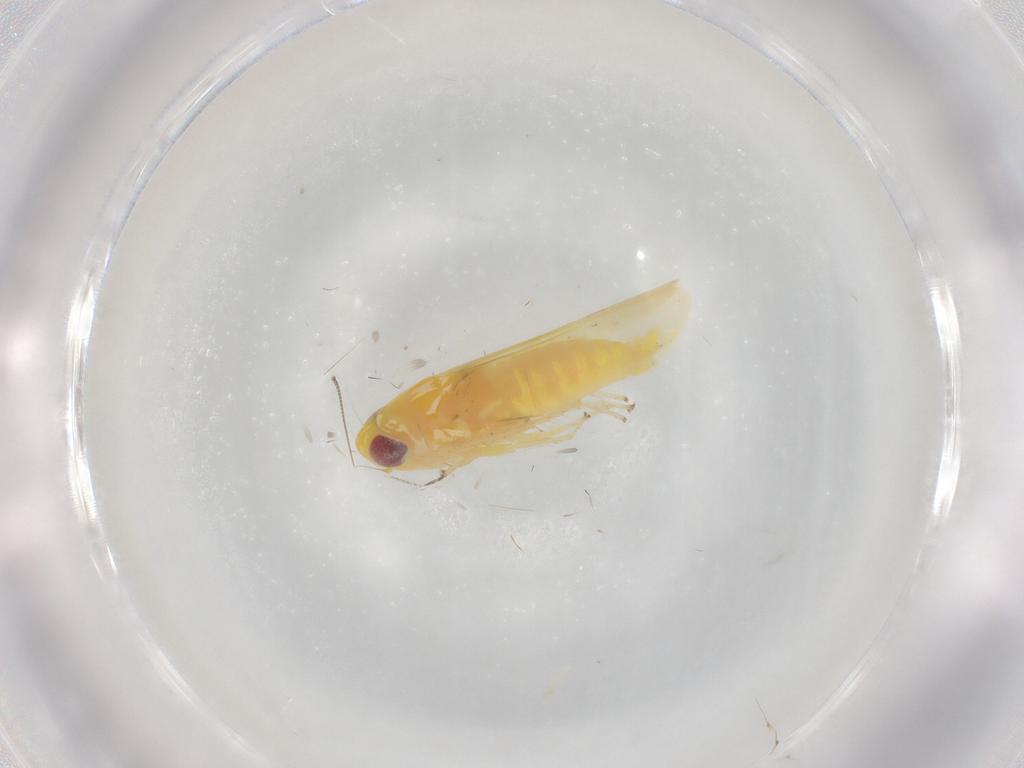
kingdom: Animalia
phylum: Arthropoda
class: Insecta
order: Hemiptera
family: Cicadellidae
